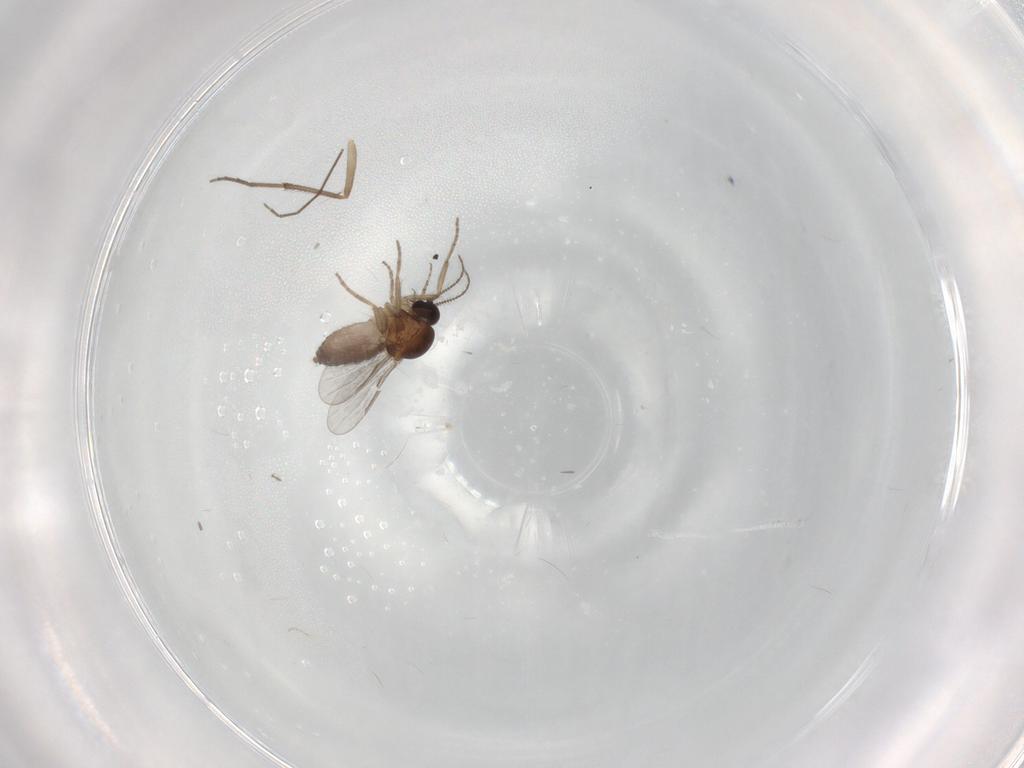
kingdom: Animalia
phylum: Arthropoda
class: Insecta
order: Diptera
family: Chironomidae
